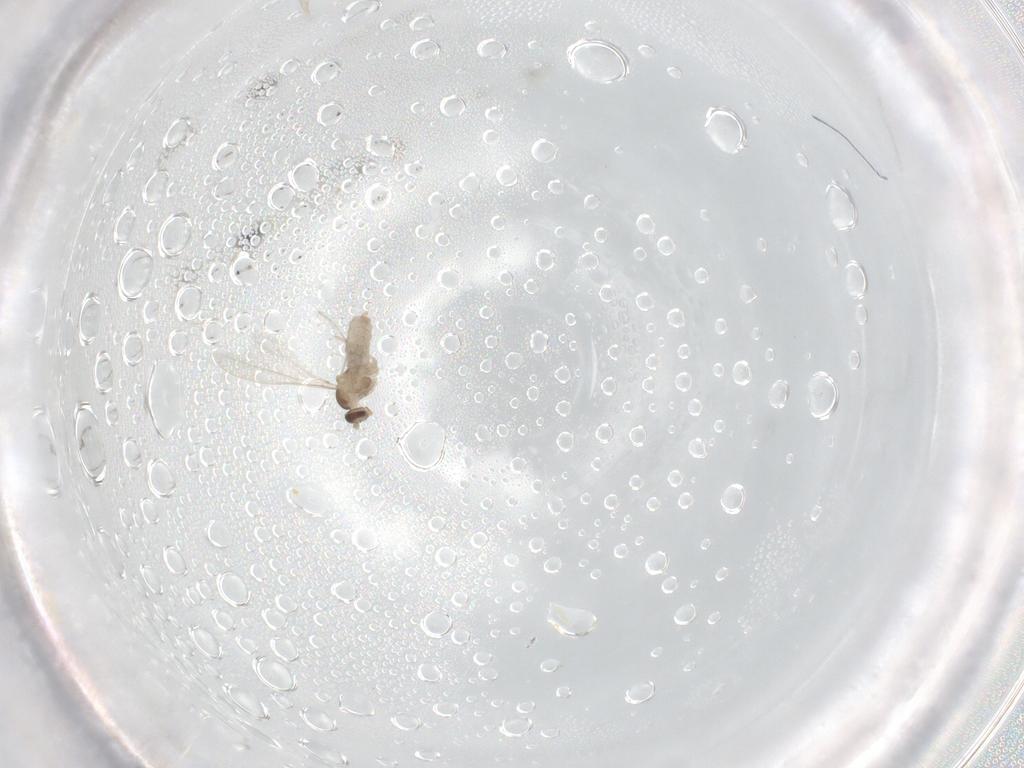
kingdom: Animalia
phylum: Arthropoda
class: Insecta
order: Diptera
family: Cecidomyiidae
